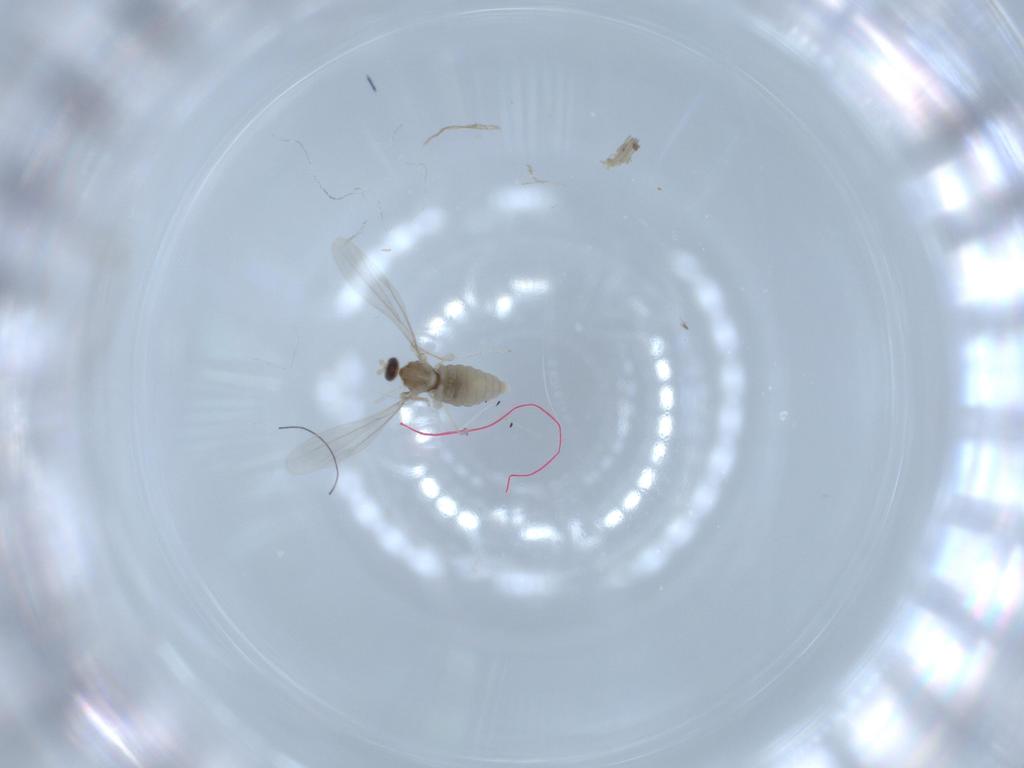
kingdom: Animalia
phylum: Arthropoda
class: Insecta
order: Diptera
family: Cecidomyiidae
